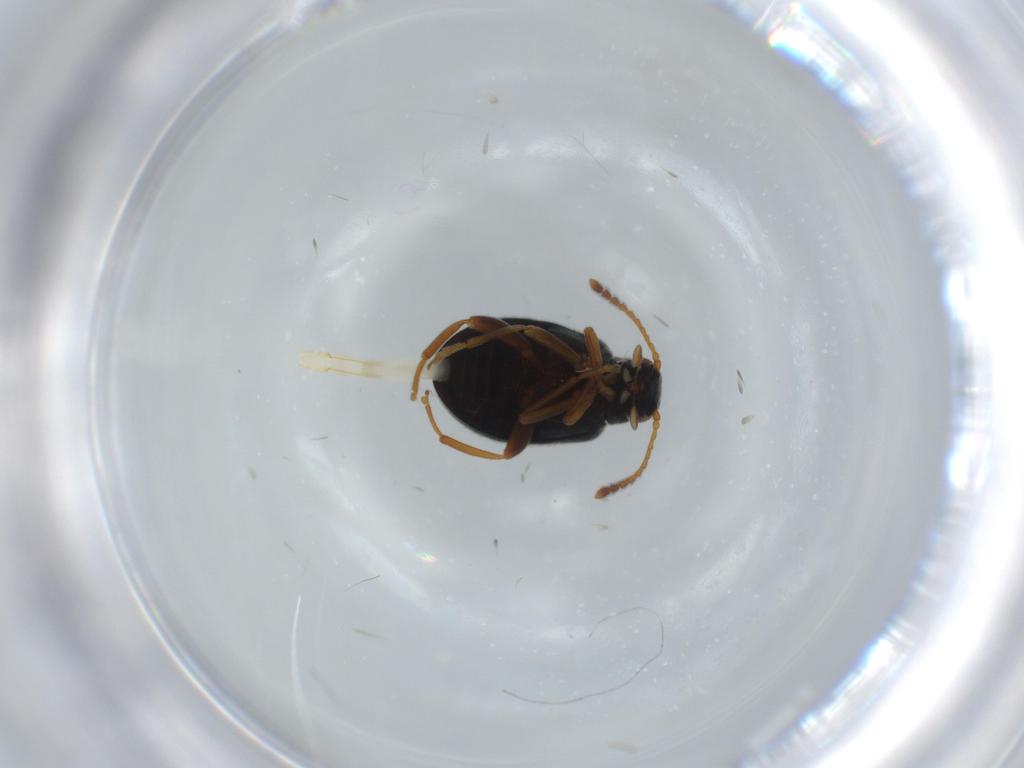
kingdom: Animalia
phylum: Arthropoda
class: Insecta
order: Coleoptera
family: Aderidae
